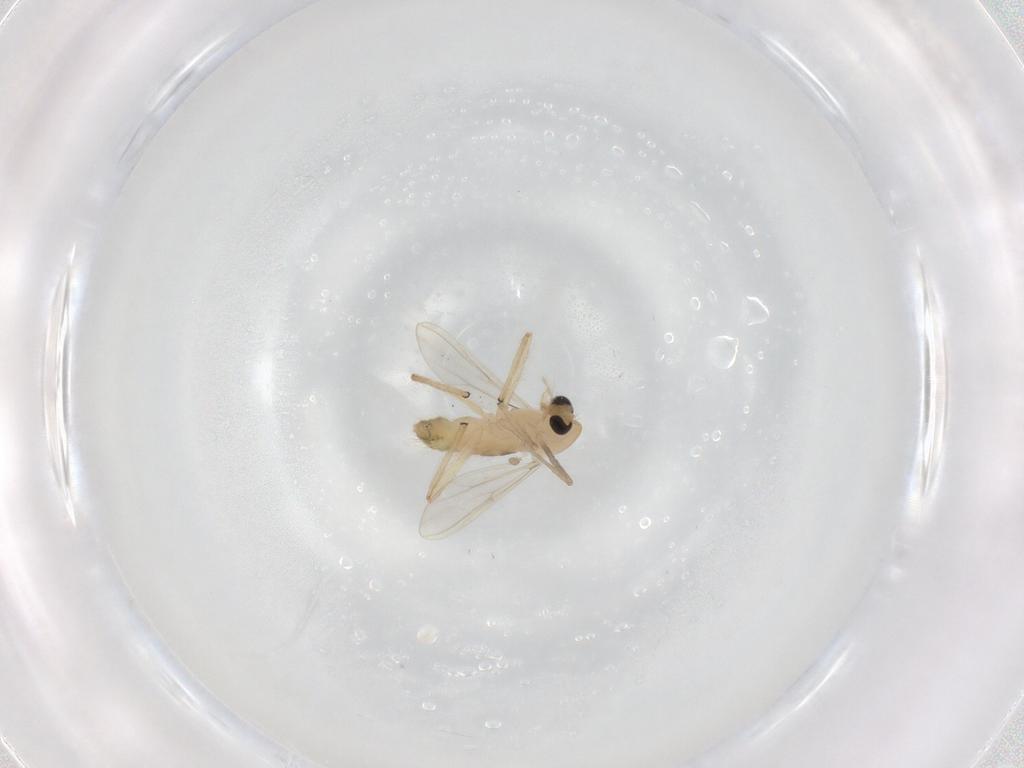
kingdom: Animalia
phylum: Arthropoda
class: Insecta
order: Diptera
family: Chironomidae
